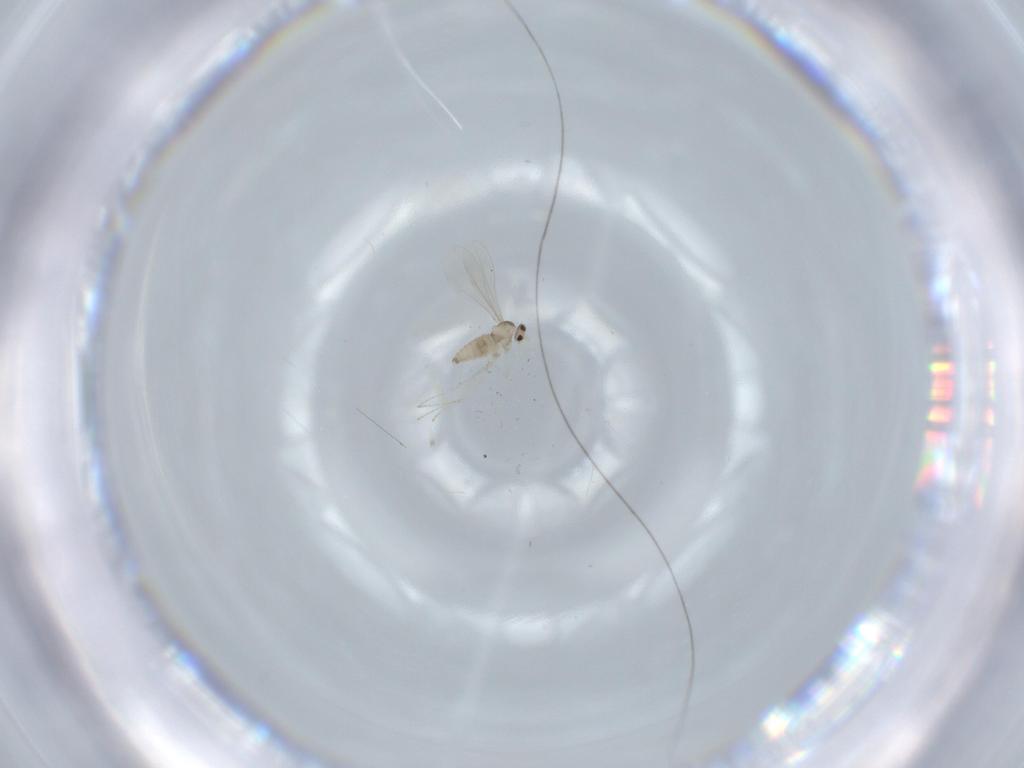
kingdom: Animalia
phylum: Arthropoda
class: Insecta
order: Diptera
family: Cecidomyiidae
